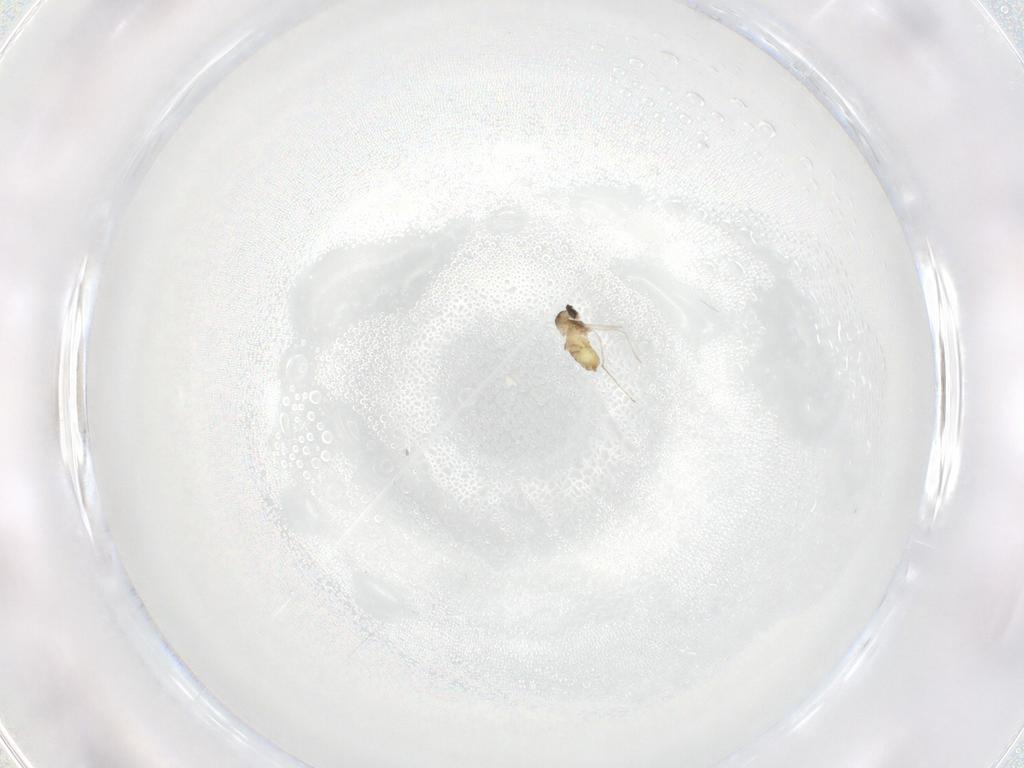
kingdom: Animalia
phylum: Arthropoda
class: Insecta
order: Diptera
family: Cecidomyiidae
